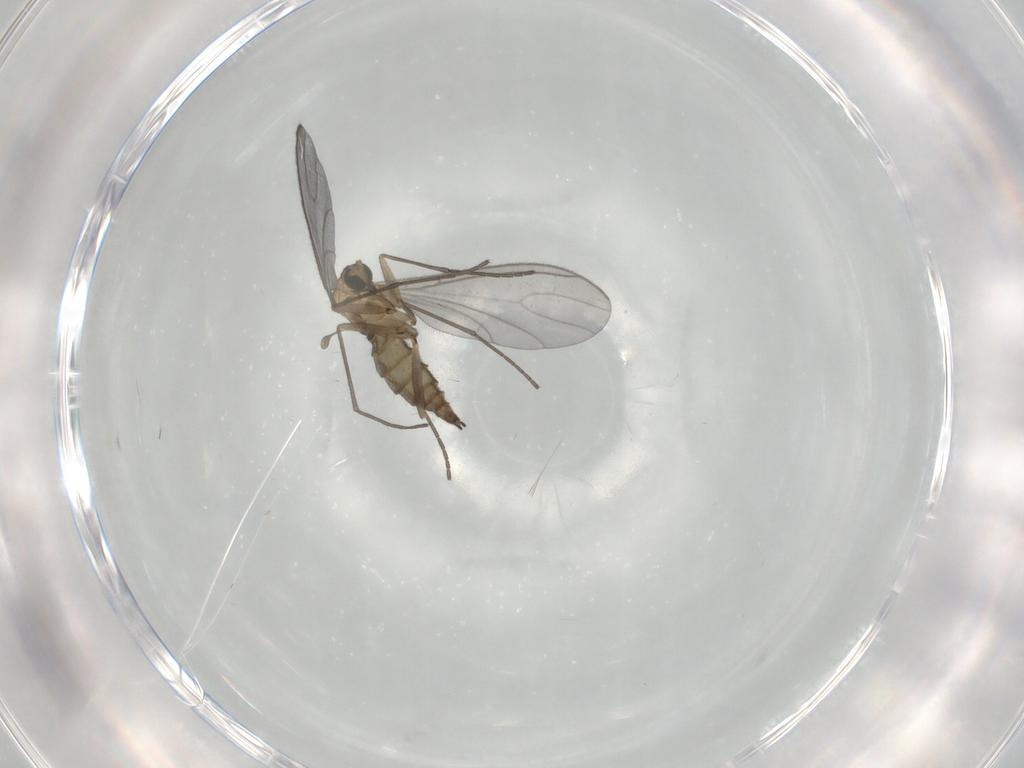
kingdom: Animalia
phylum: Arthropoda
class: Insecta
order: Diptera
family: Sciaridae
